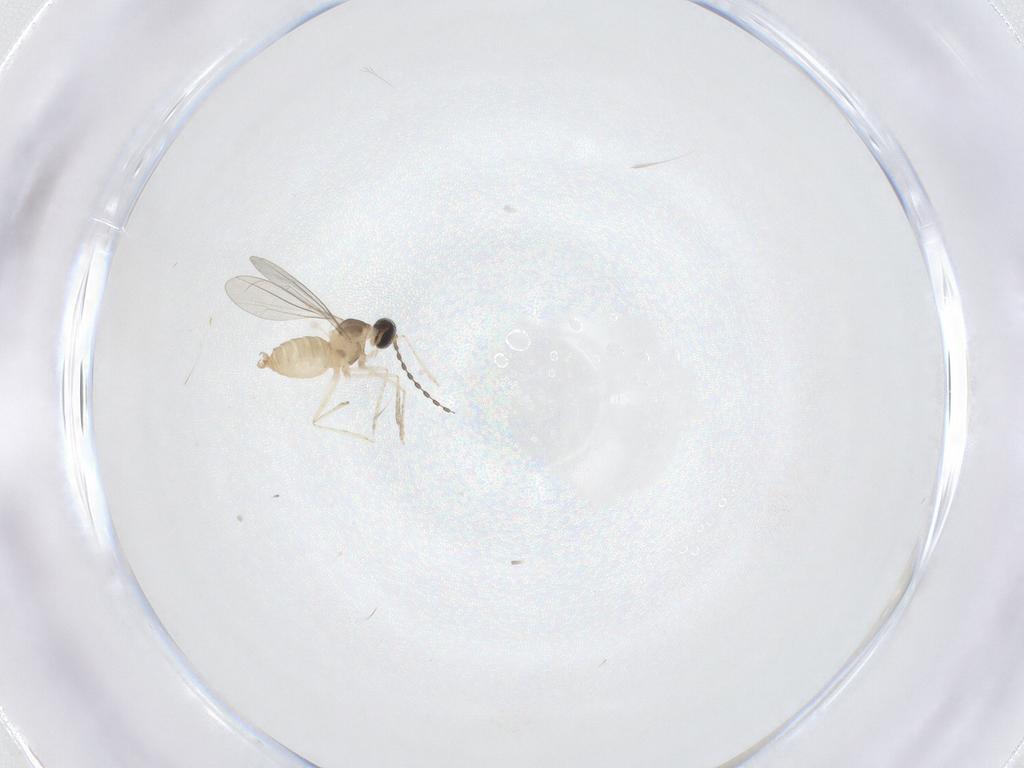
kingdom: Animalia
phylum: Arthropoda
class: Insecta
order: Diptera
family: Cecidomyiidae
